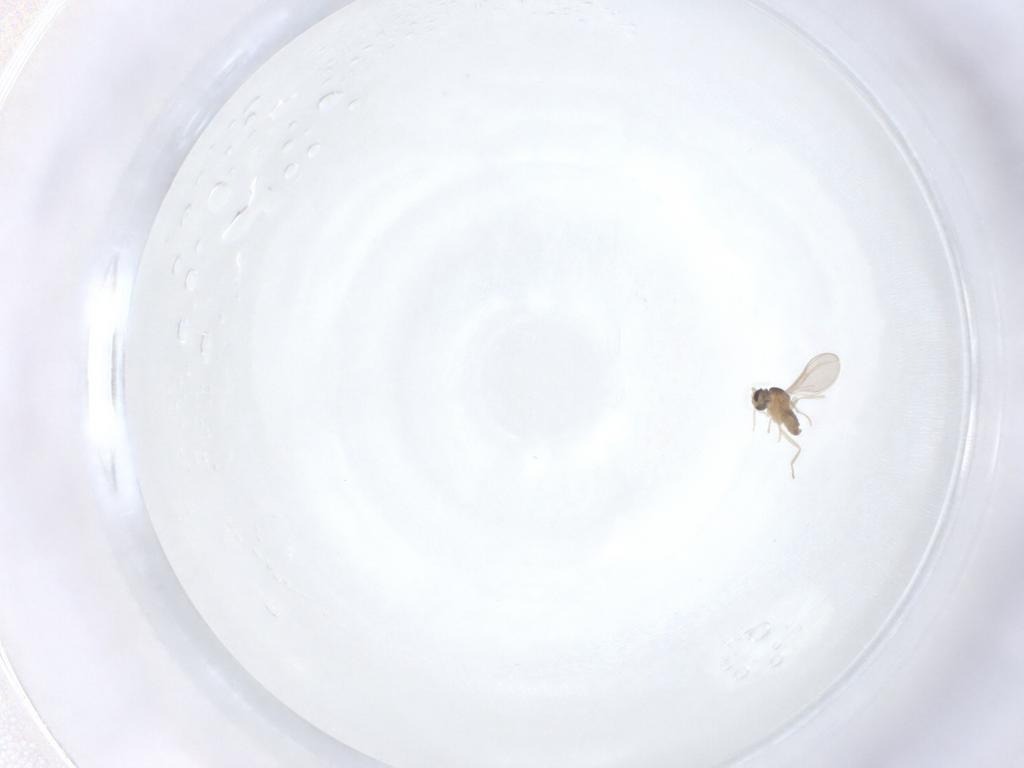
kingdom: Animalia
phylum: Arthropoda
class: Insecta
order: Diptera
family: Cecidomyiidae
